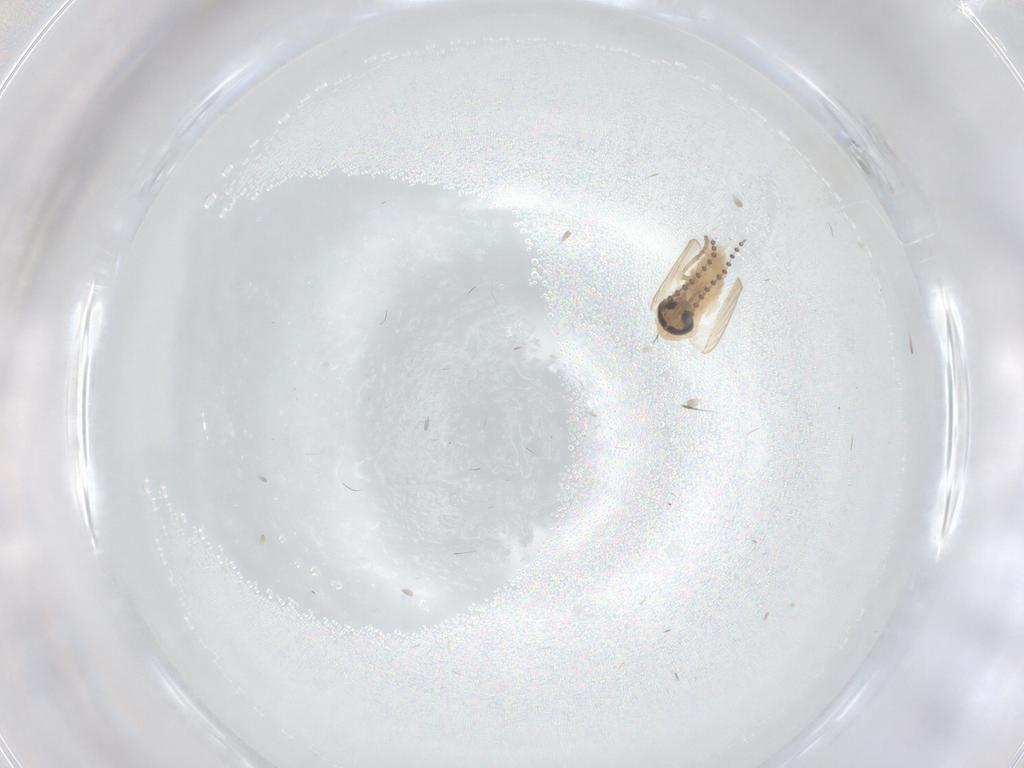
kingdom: Animalia
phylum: Arthropoda
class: Insecta
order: Diptera
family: Psychodidae
